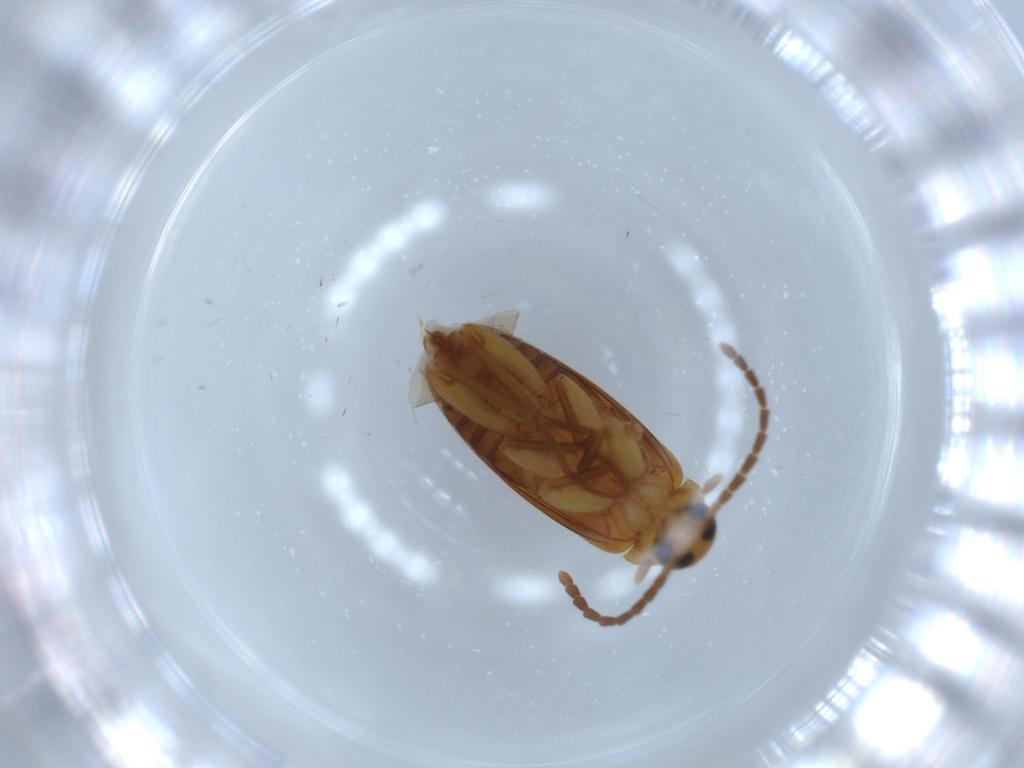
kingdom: Animalia
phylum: Arthropoda
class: Insecta
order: Coleoptera
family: Scraptiidae
